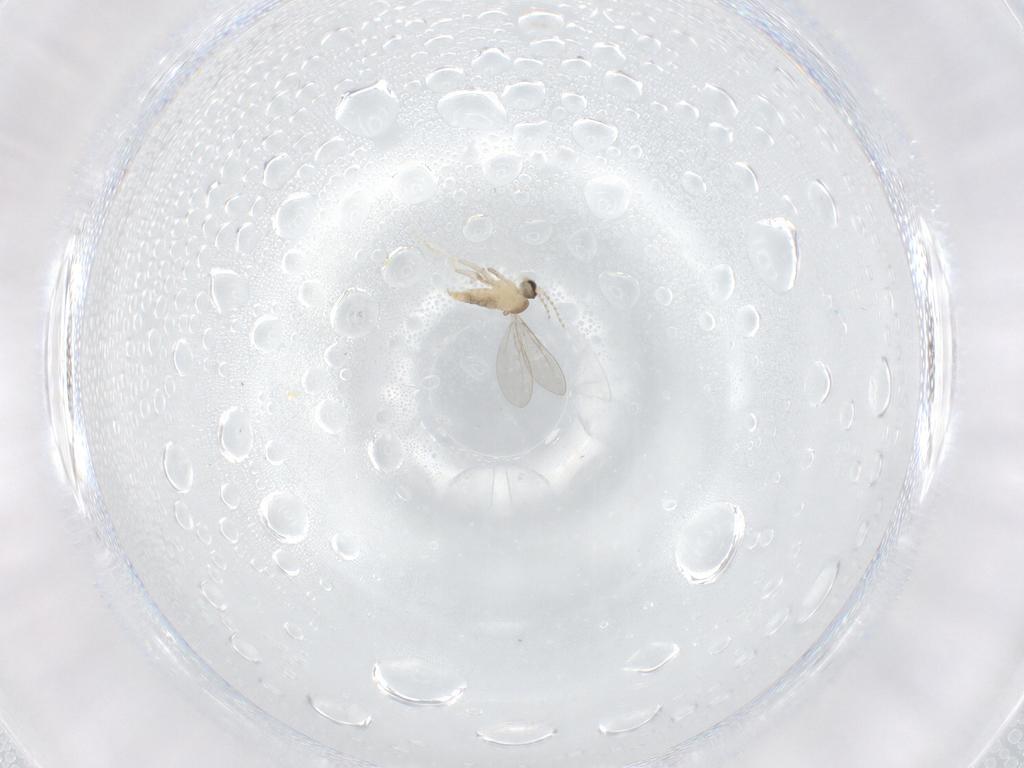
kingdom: Animalia
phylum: Arthropoda
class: Insecta
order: Diptera
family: Cecidomyiidae
